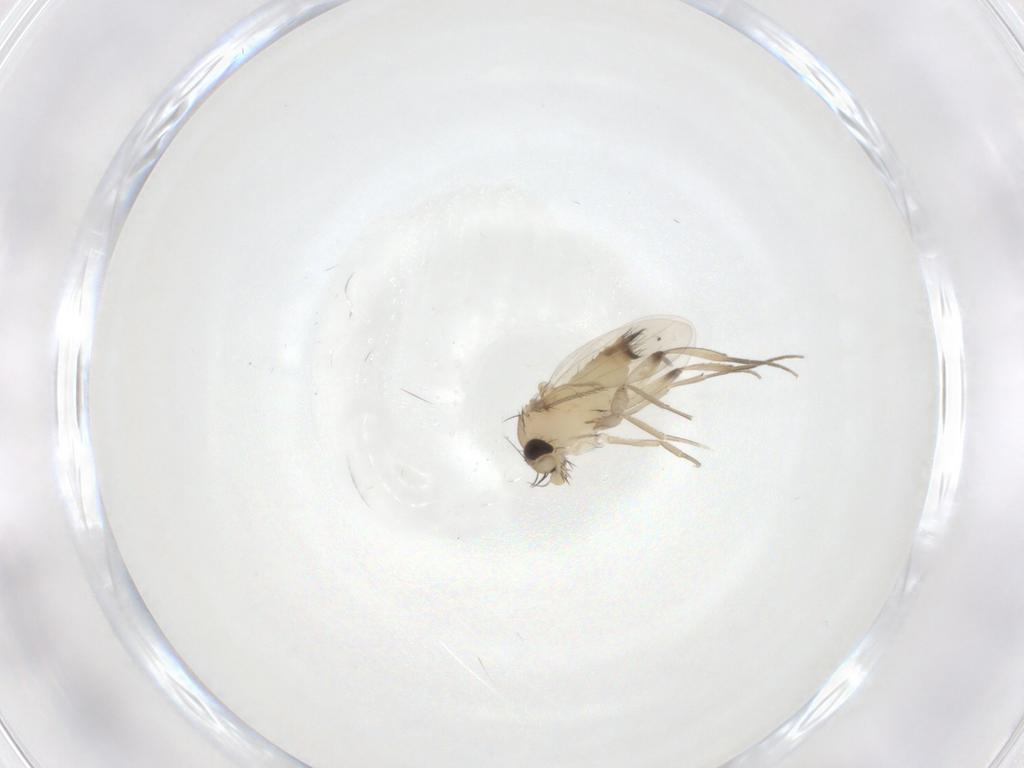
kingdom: Animalia
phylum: Arthropoda
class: Insecta
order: Diptera
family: Phoridae
